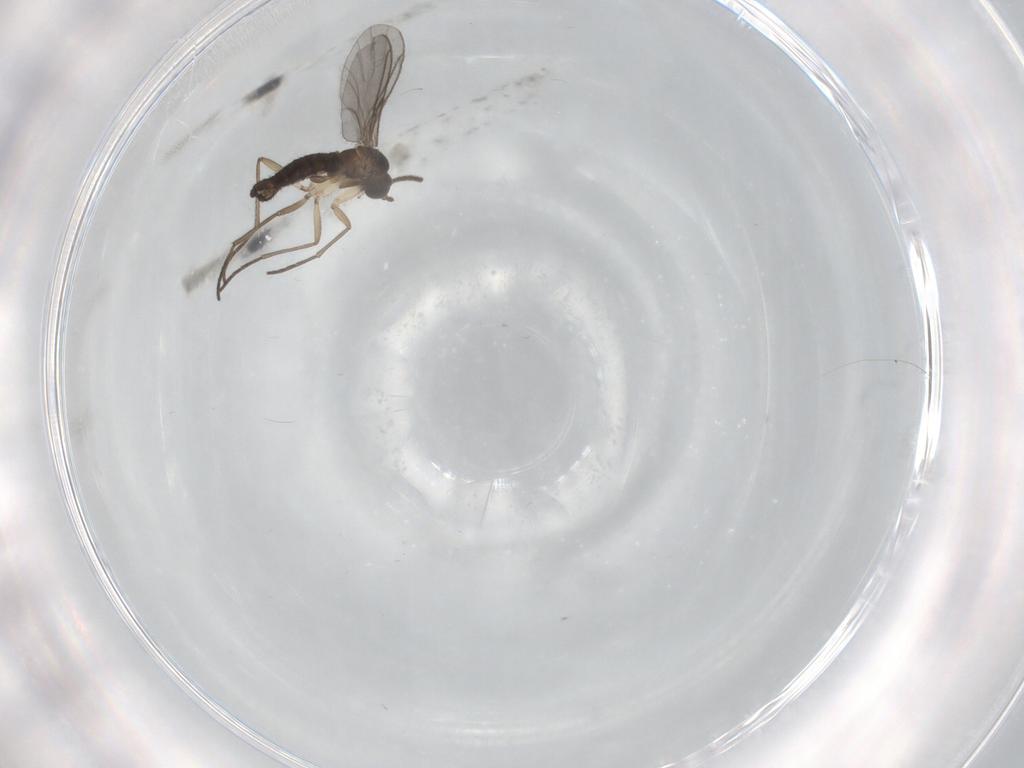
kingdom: Animalia
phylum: Arthropoda
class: Insecta
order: Diptera
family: Sciaridae
